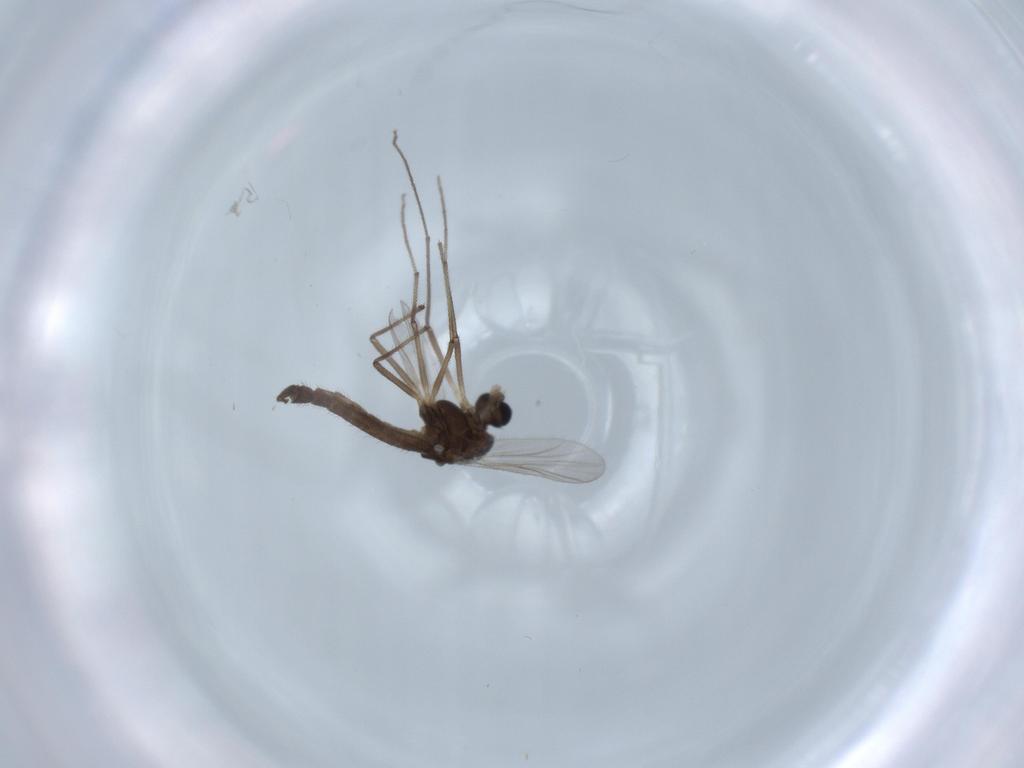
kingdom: Animalia
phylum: Arthropoda
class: Insecta
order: Diptera
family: Chironomidae
